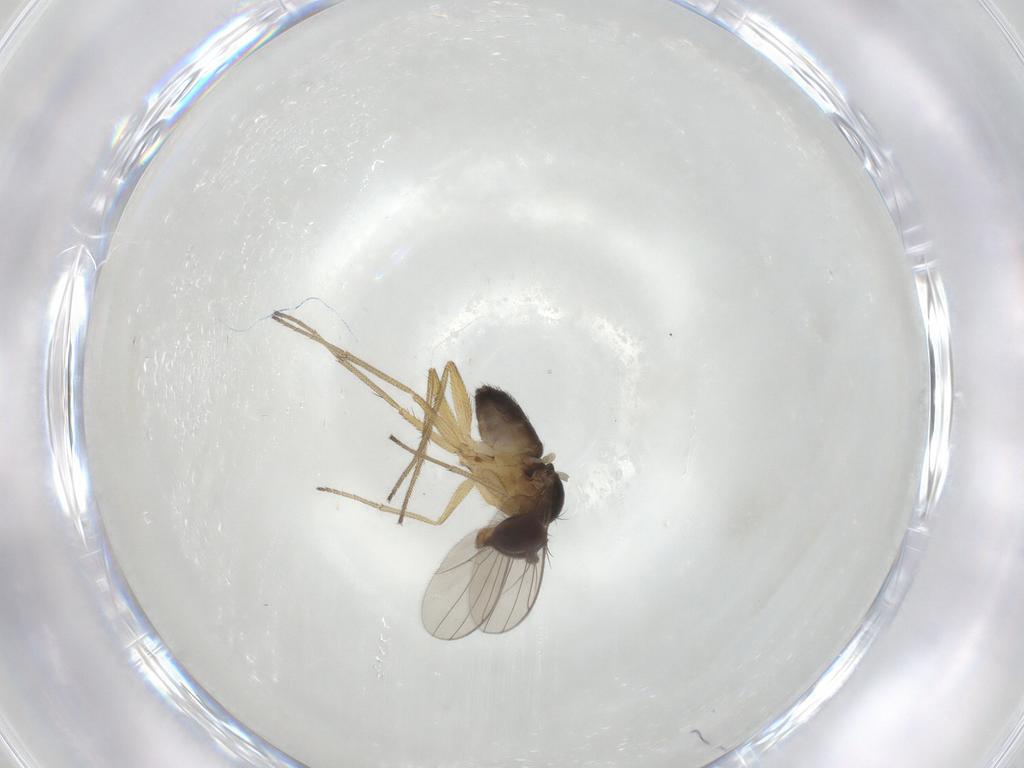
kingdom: Animalia
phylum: Arthropoda
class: Insecta
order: Diptera
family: Dolichopodidae
